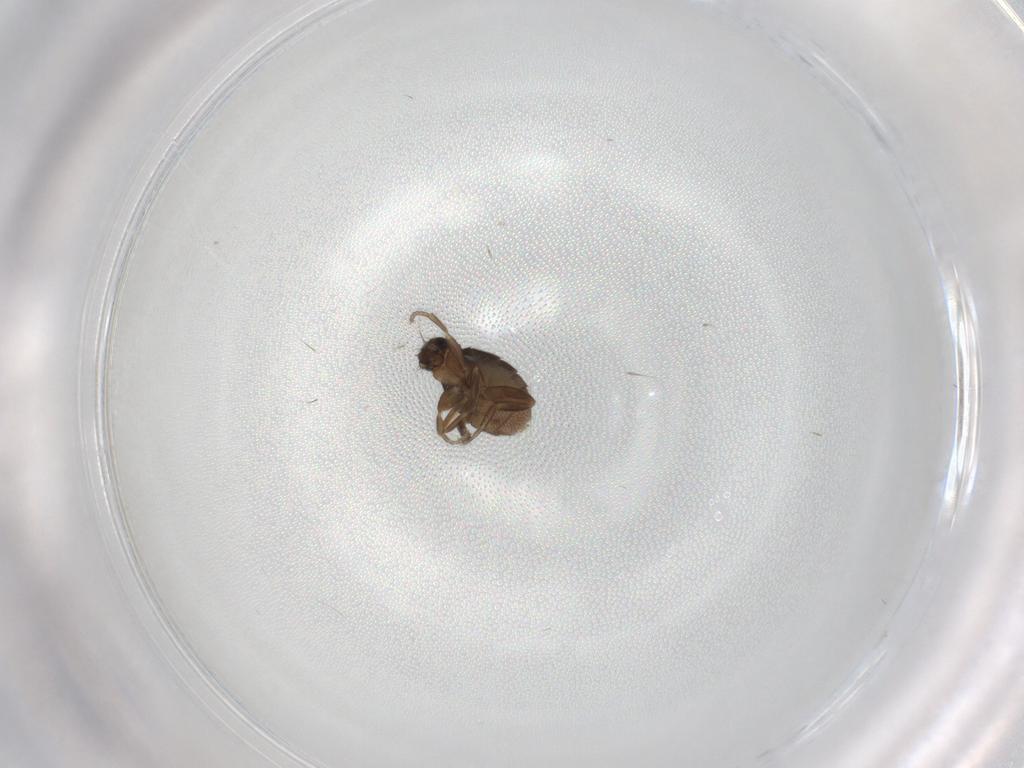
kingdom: Animalia
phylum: Arthropoda
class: Insecta
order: Diptera
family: Phoridae
